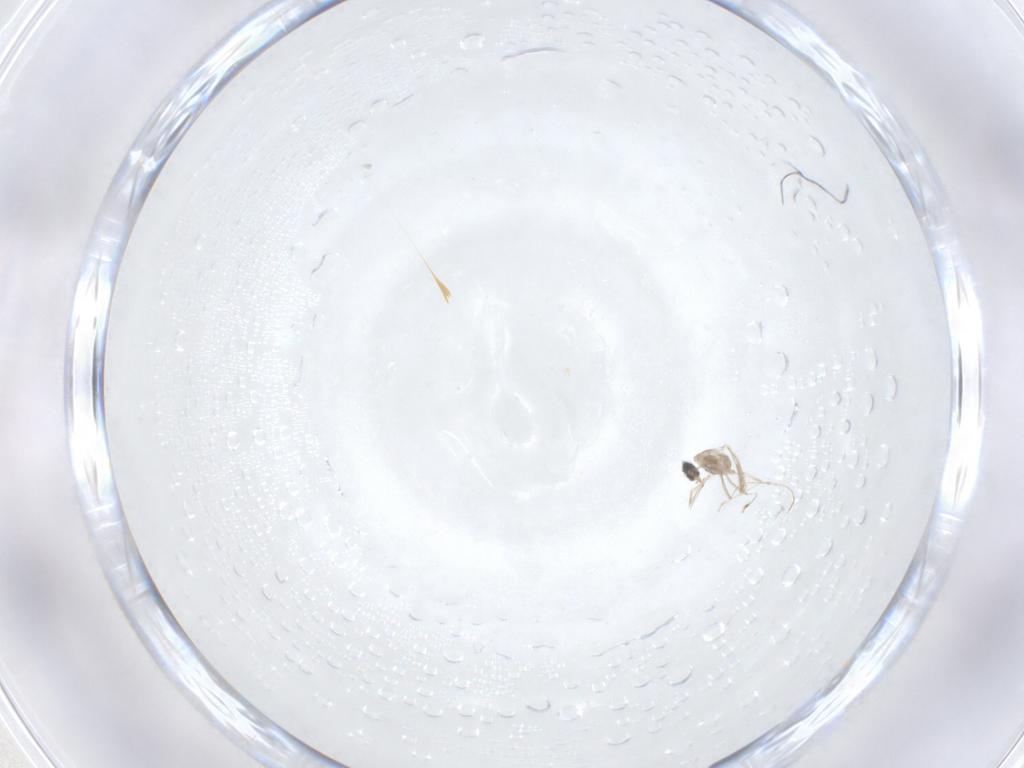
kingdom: Animalia
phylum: Arthropoda
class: Insecta
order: Diptera
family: Cecidomyiidae
